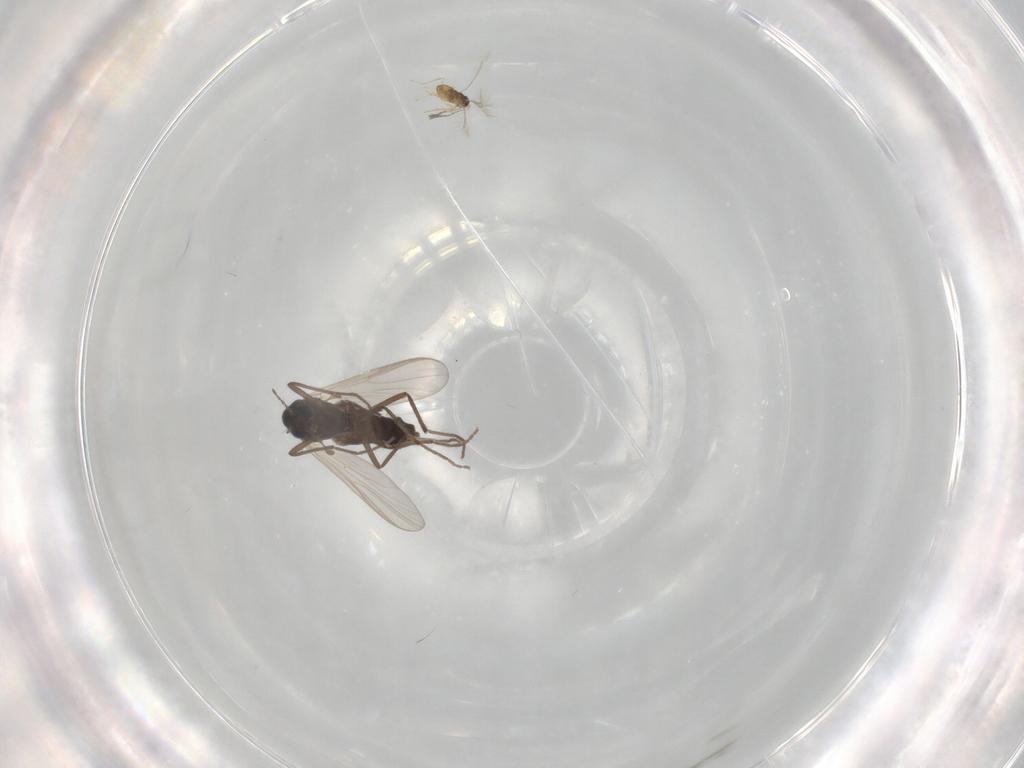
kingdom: Animalia
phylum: Arthropoda
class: Insecta
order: Diptera
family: Chironomidae
